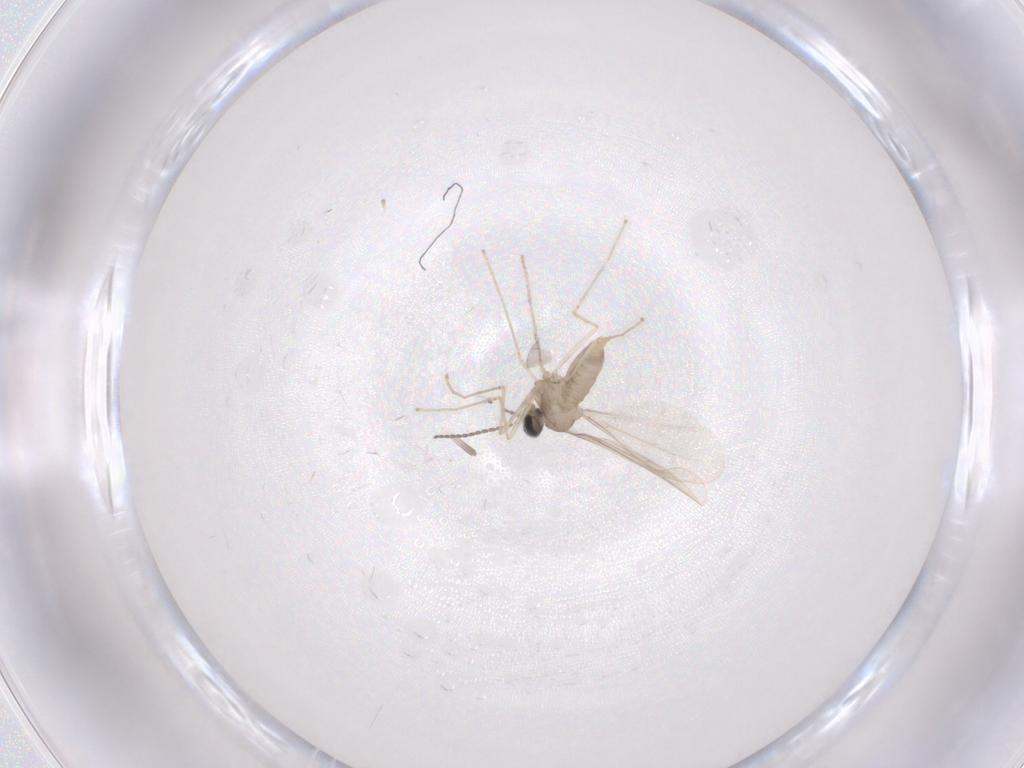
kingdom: Animalia
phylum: Arthropoda
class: Insecta
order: Diptera
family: Cecidomyiidae
